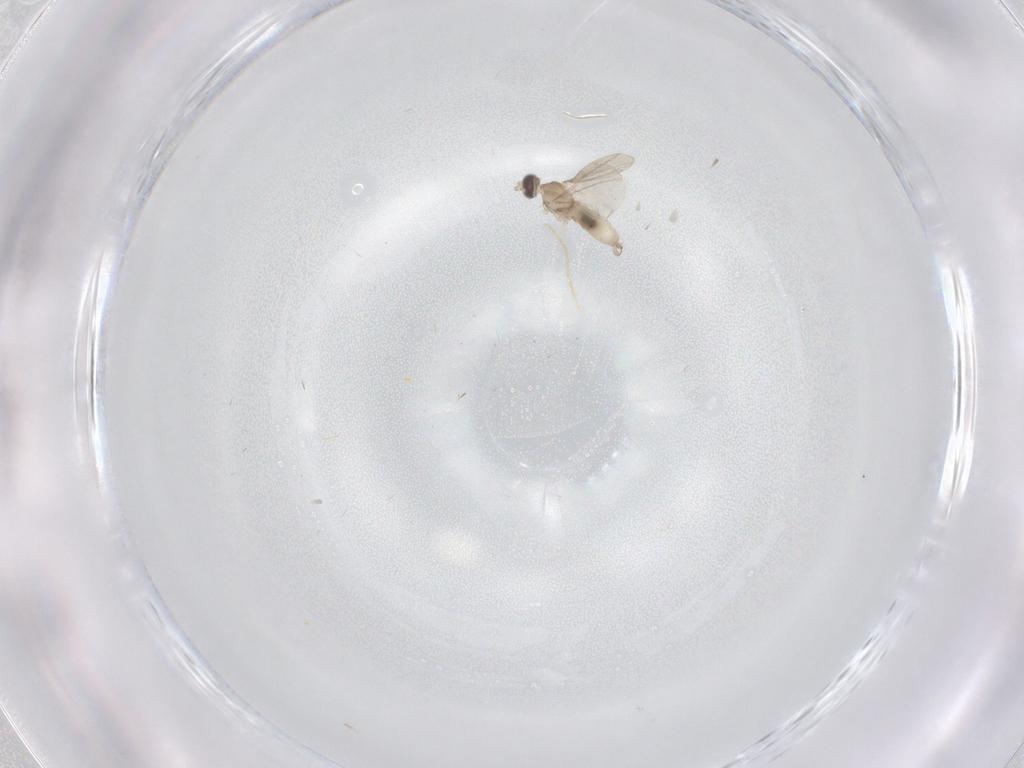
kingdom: Animalia
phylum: Arthropoda
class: Insecta
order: Diptera
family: Cecidomyiidae
